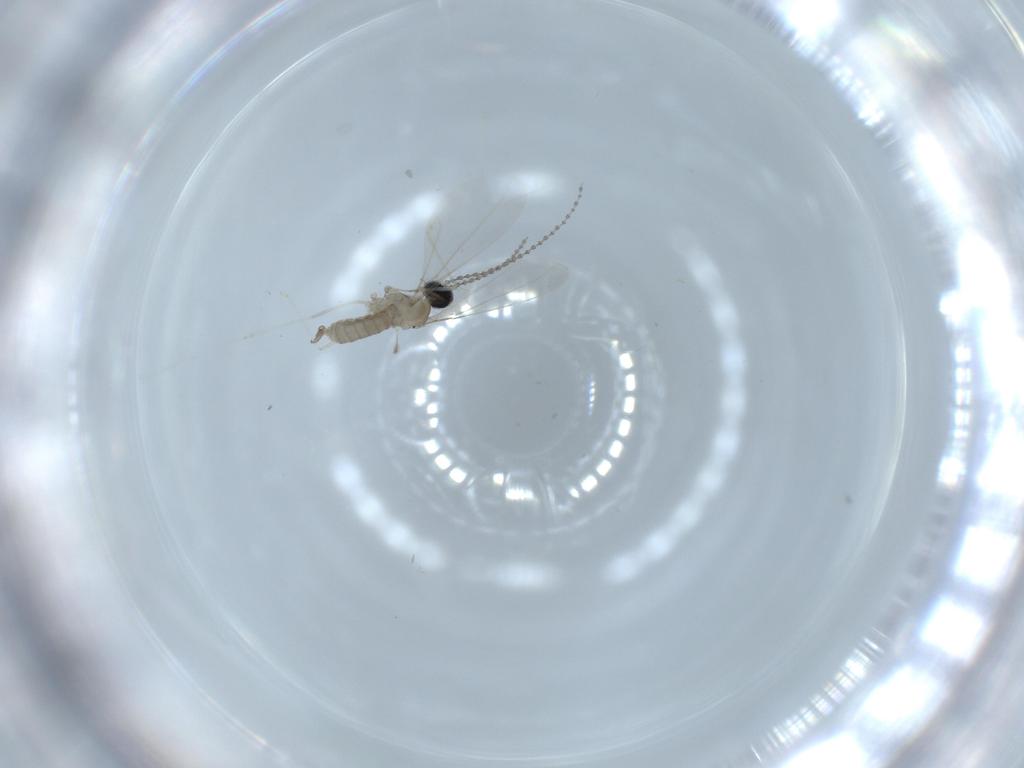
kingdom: Animalia
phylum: Arthropoda
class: Insecta
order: Diptera
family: Cecidomyiidae
